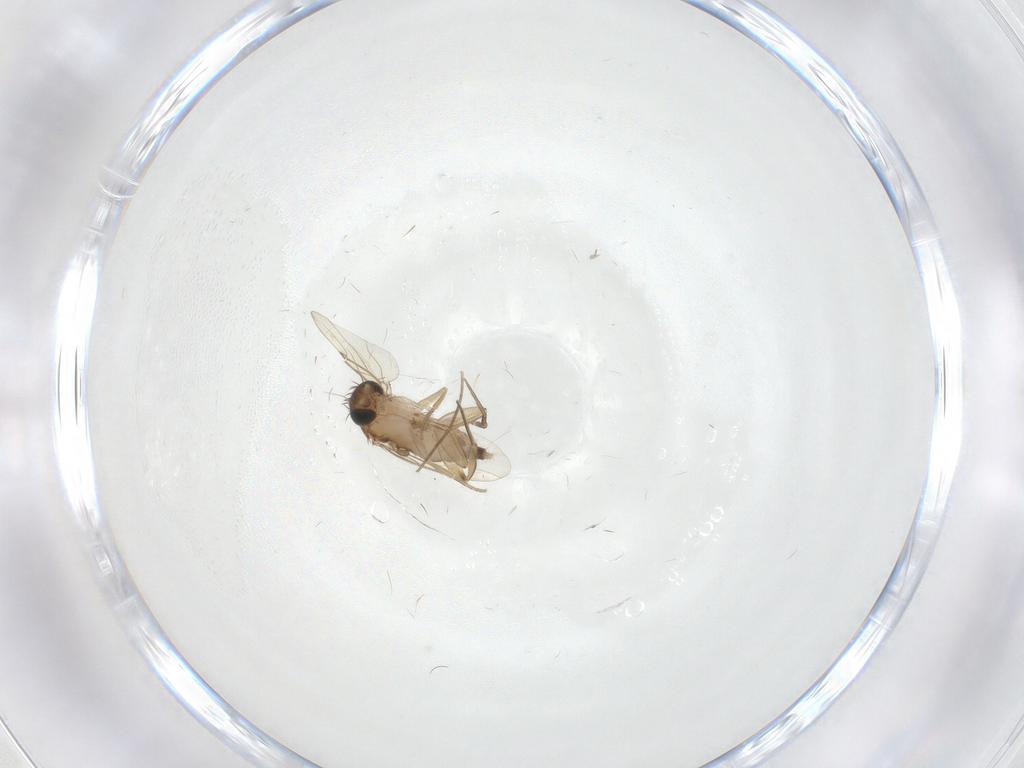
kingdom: Animalia
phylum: Arthropoda
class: Insecta
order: Diptera
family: Phoridae
